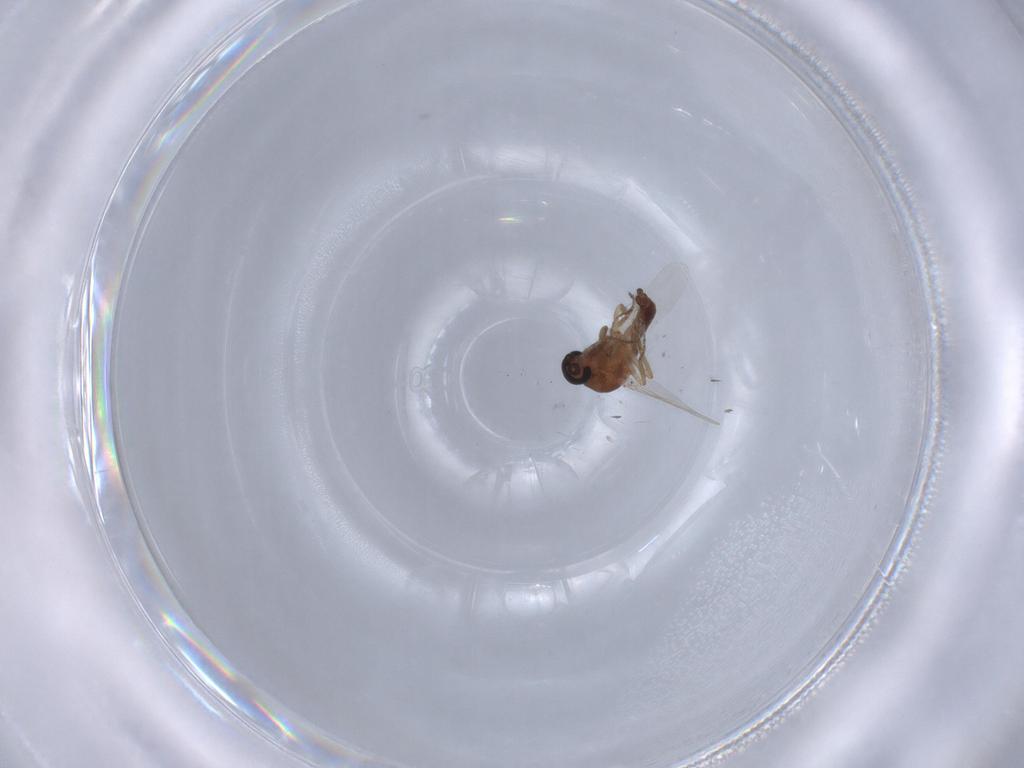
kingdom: Animalia
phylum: Arthropoda
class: Insecta
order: Diptera
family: Ceratopogonidae
